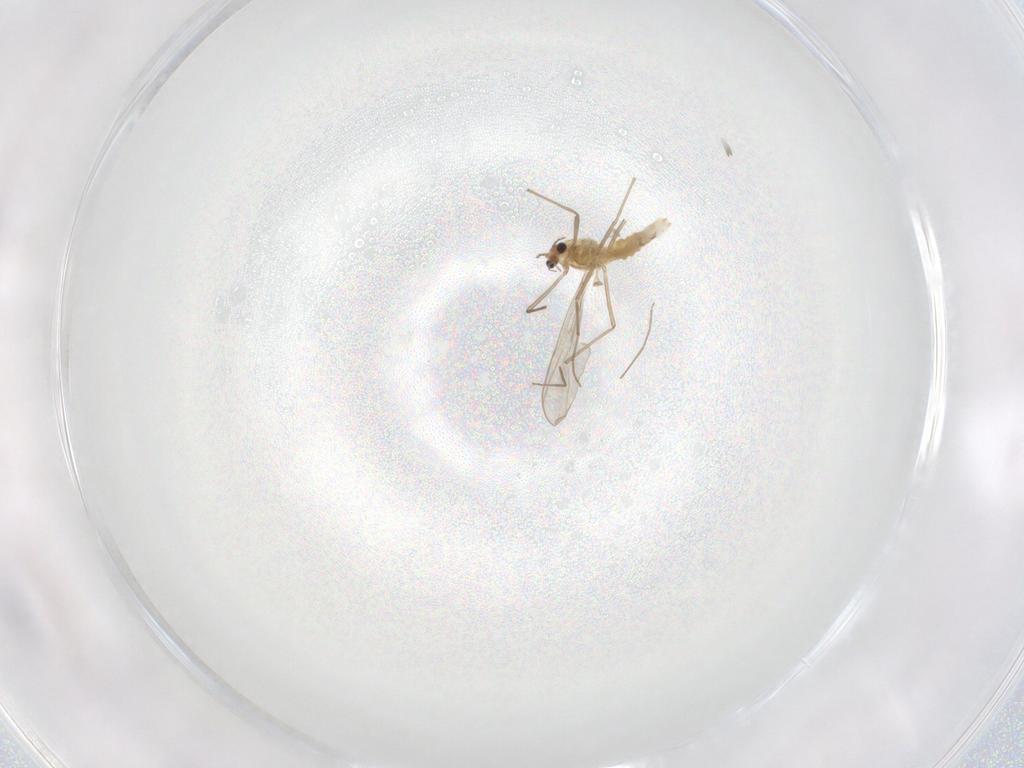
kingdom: Animalia
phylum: Arthropoda
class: Insecta
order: Diptera
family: Chironomidae
